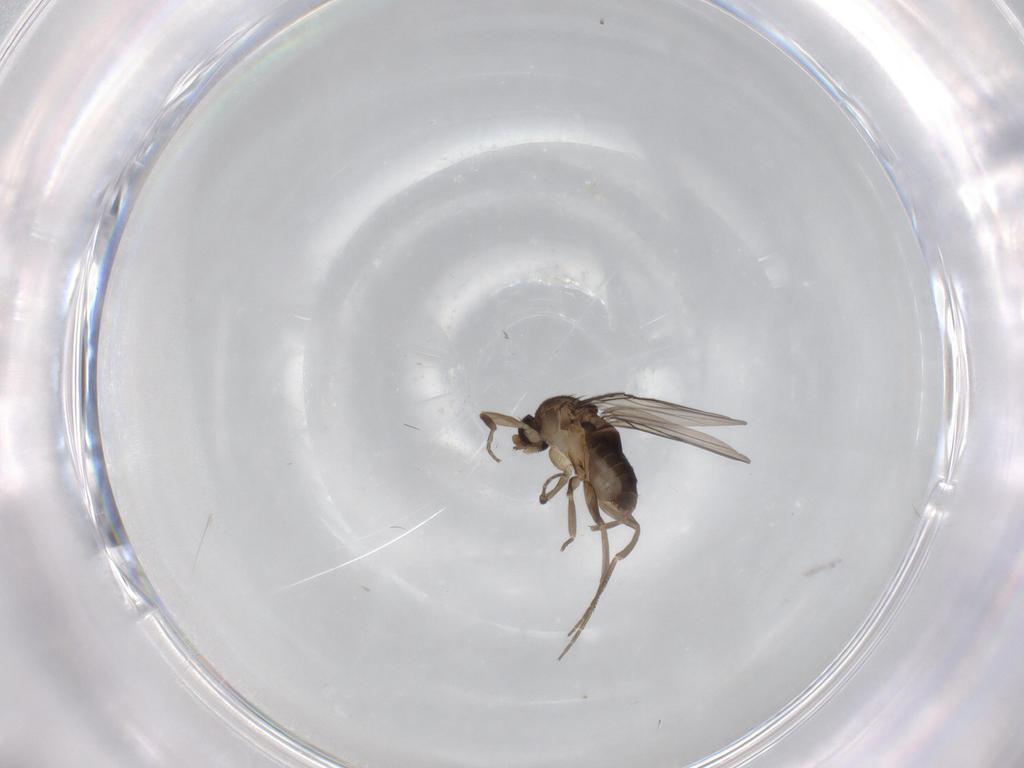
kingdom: Animalia
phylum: Arthropoda
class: Insecta
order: Diptera
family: Phoridae
